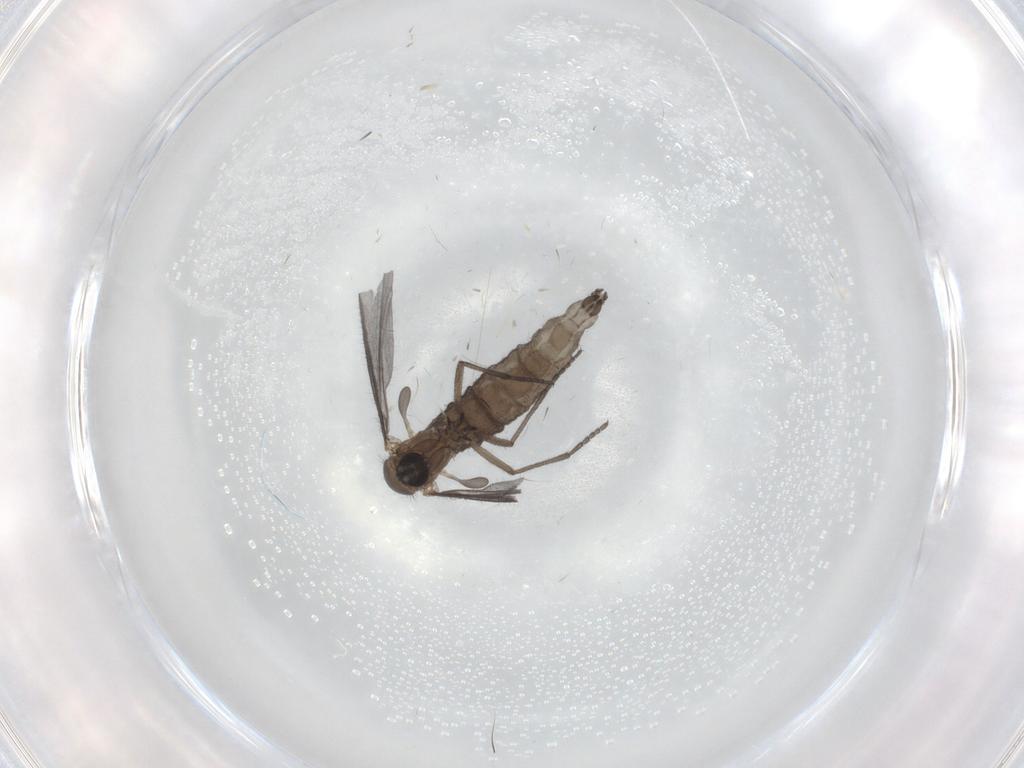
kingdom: Animalia
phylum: Arthropoda
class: Insecta
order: Diptera
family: Sciaridae
